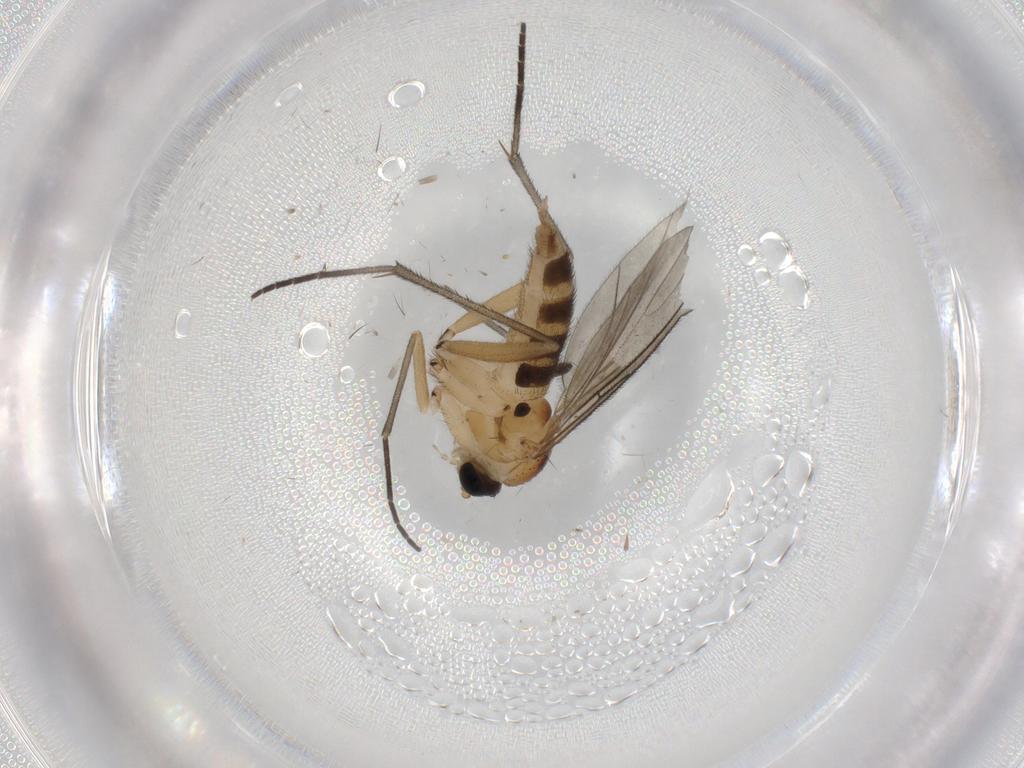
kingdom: Animalia
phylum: Arthropoda
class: Insecta
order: Diptera
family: Sciaridae
